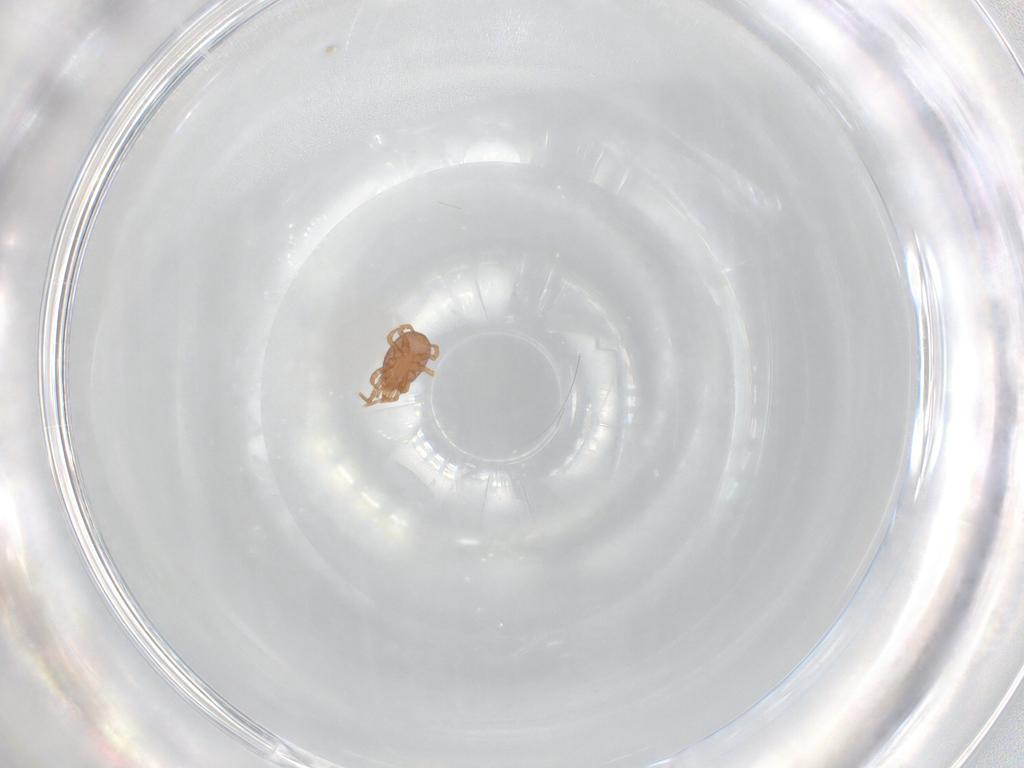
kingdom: Animalia
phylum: Arthropoda
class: Arachnida
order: Mesostigmata
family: Eviphididae
